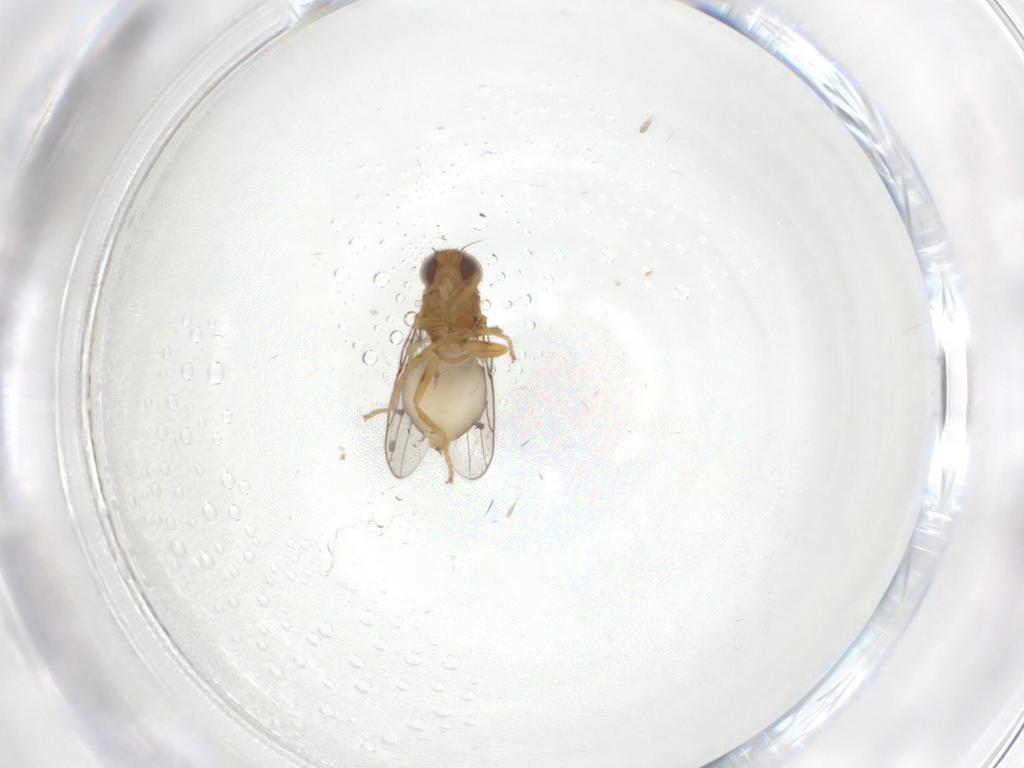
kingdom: Animalia
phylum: Arthropoda
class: Insecta
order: Diptera
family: Chloropidae
